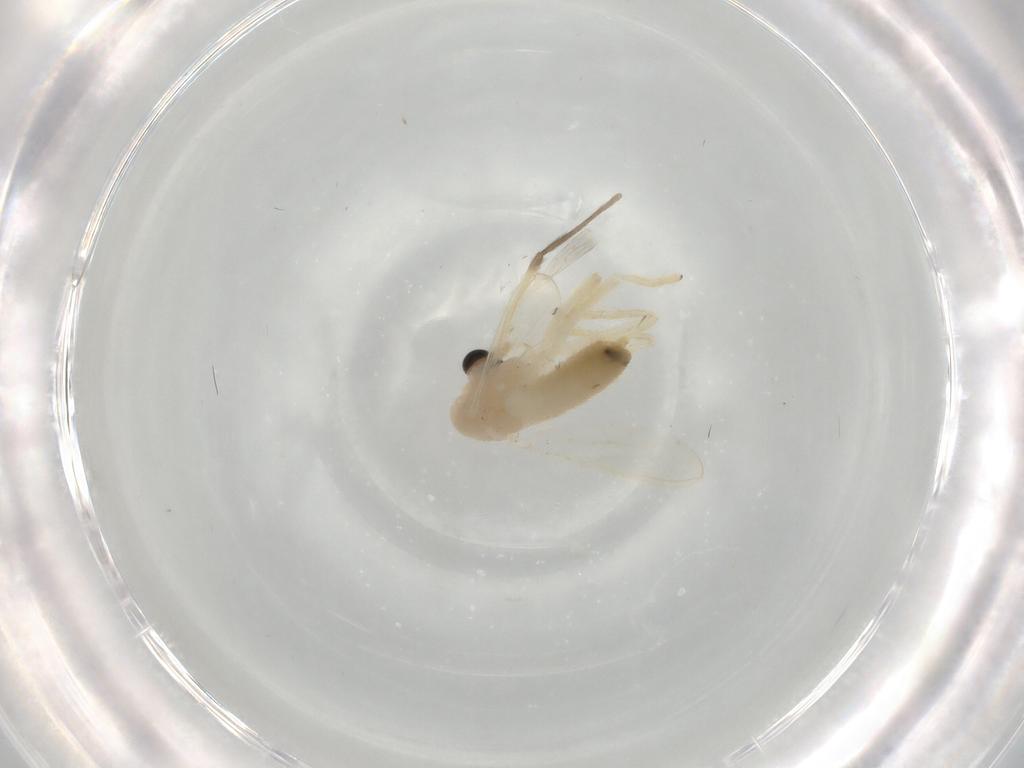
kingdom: Animalia
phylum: Arthropoda
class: Insecta
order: Diptera
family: Chironomidae
